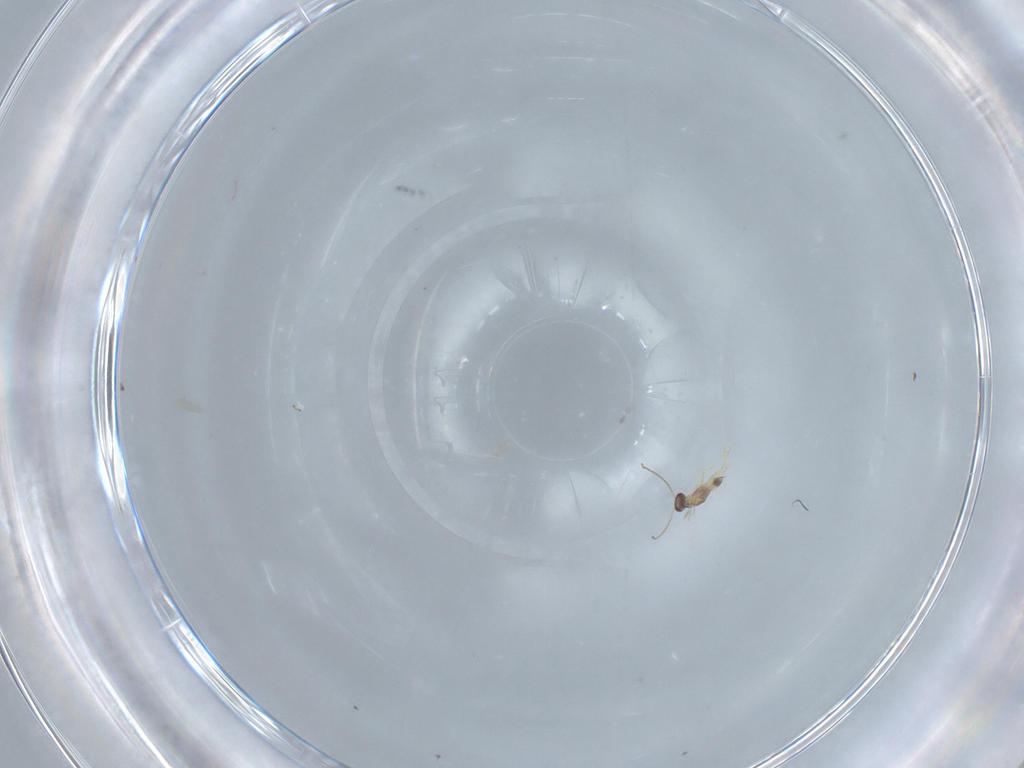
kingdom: Animalia
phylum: Arthropoda
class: Insecta
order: Hymenoptera
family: Mymaridae
